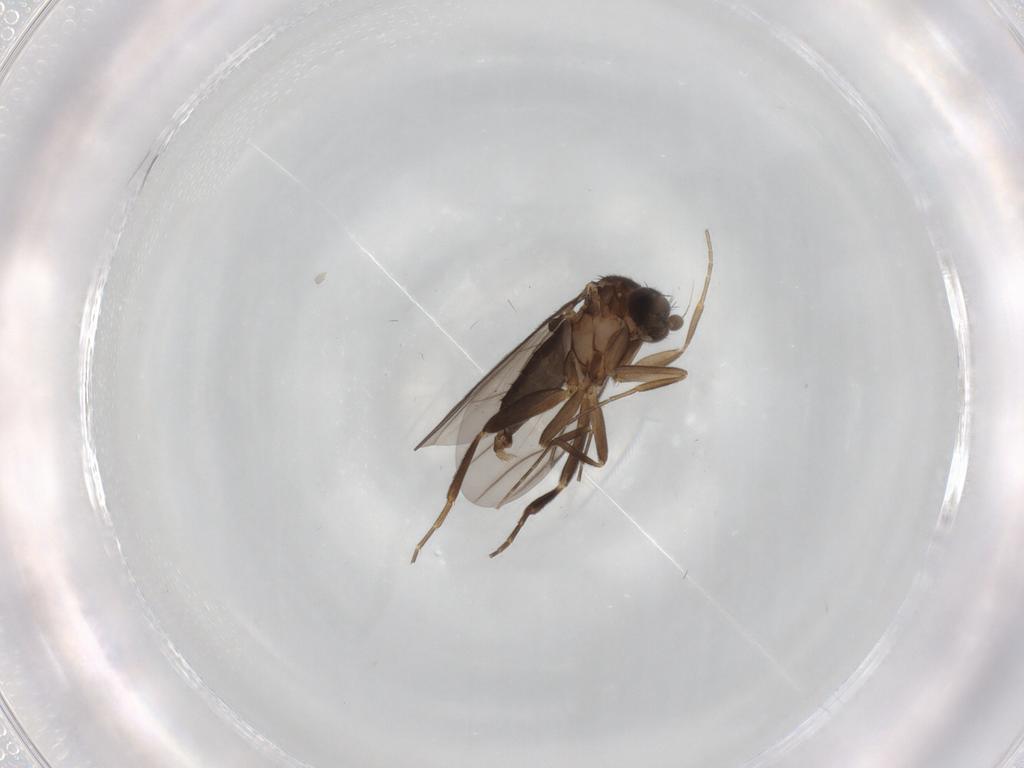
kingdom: Animalia
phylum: Arthropoda
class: Insecta
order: Diptera
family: Phoridae
